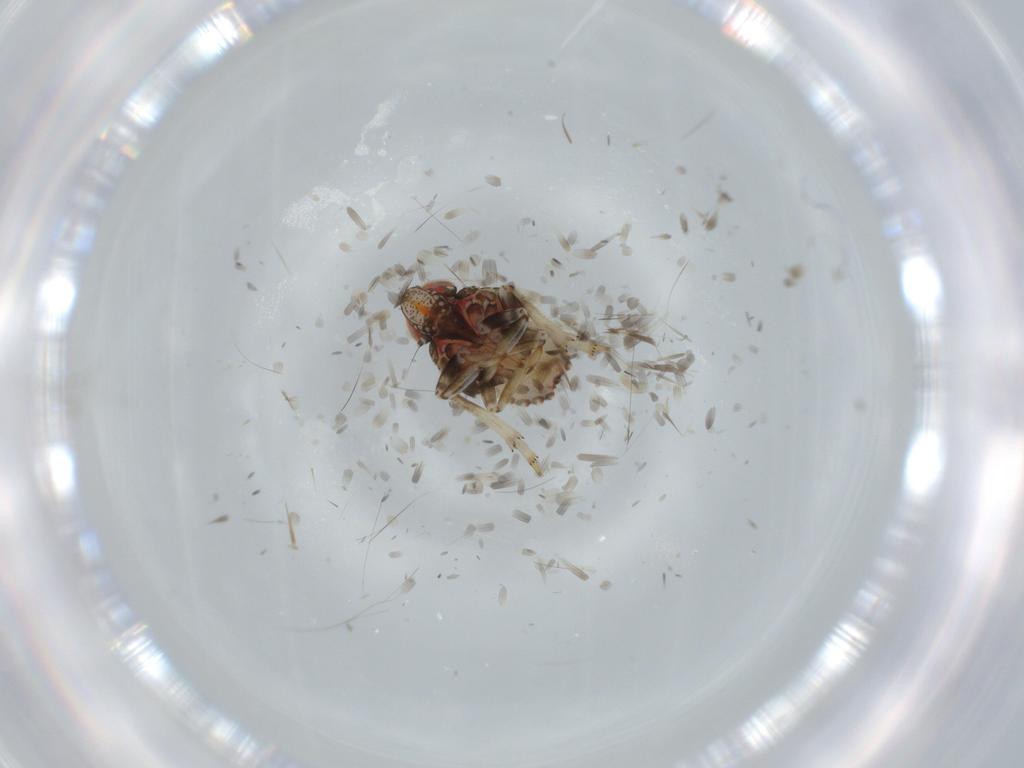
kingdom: Animalia
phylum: Arthropoda
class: Insecta
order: Hemiptera
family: Issidae
